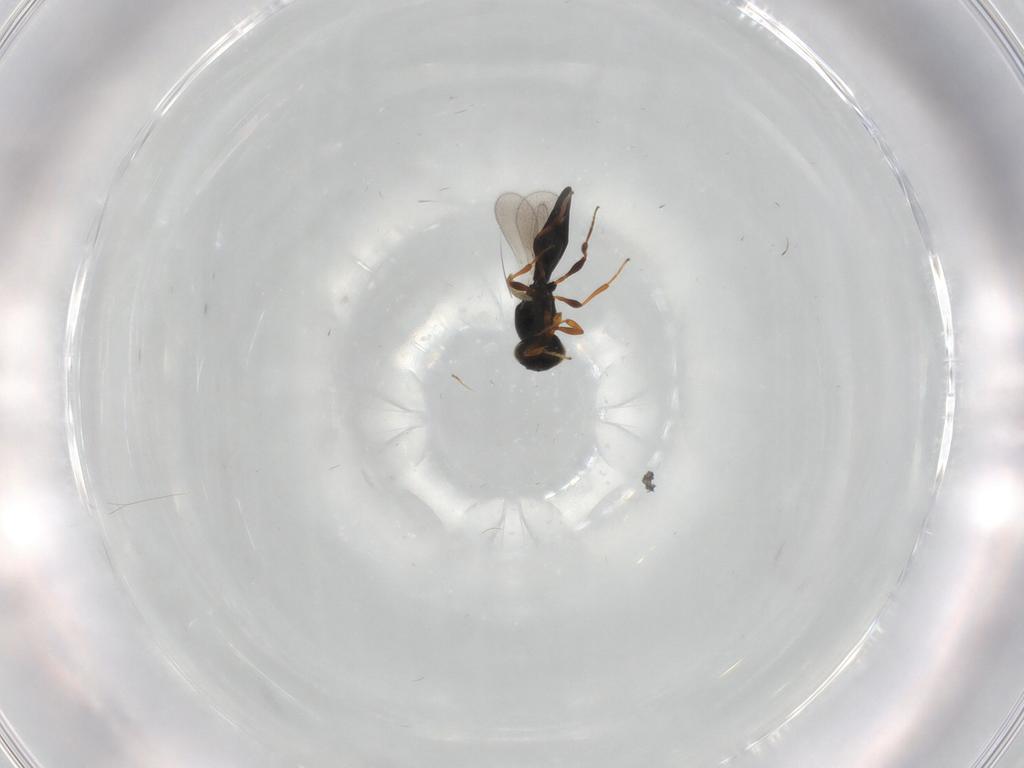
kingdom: Animalia
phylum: Arthropoda
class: Insecta
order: Hymenoptera
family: Platygastridae
